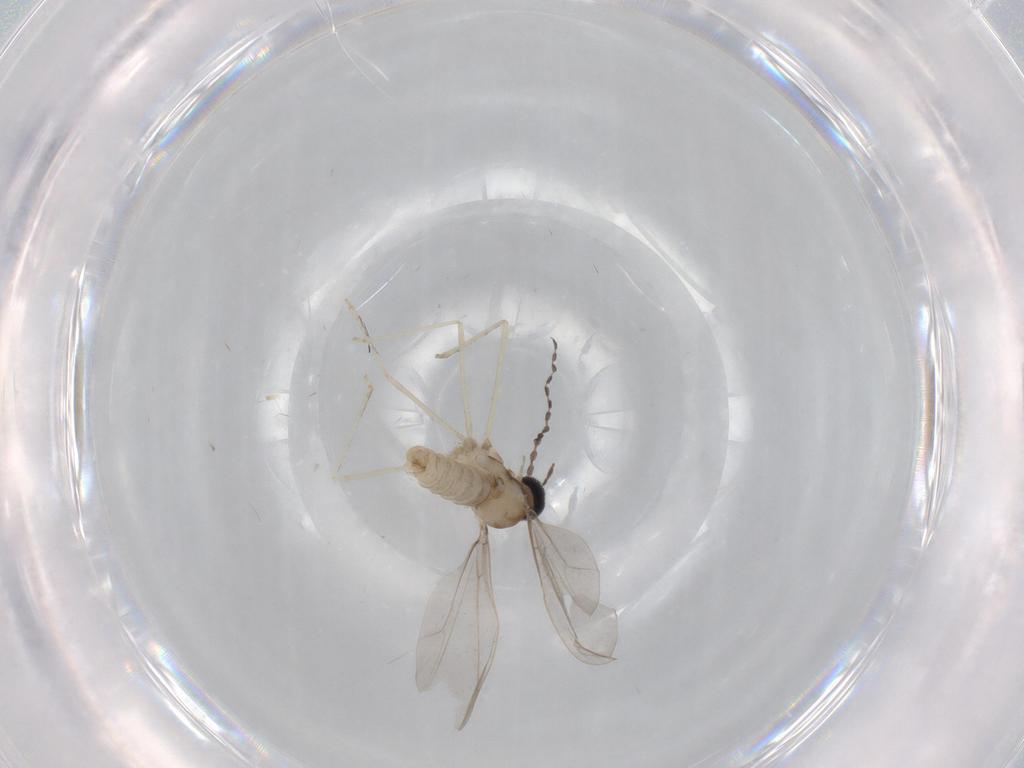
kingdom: Animalia
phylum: Arthropoda
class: Insecta
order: Diptera
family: Cecidomyiidae
